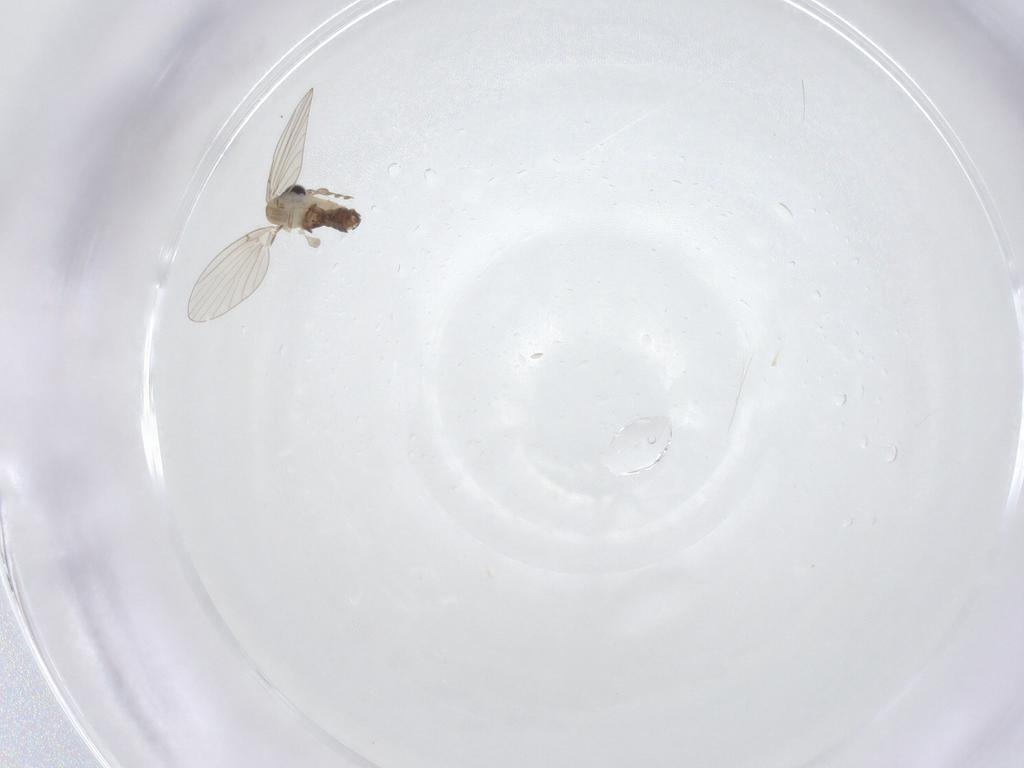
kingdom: Animalia
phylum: Arthropoda
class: Insecta
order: Diptera
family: Psychodidae
